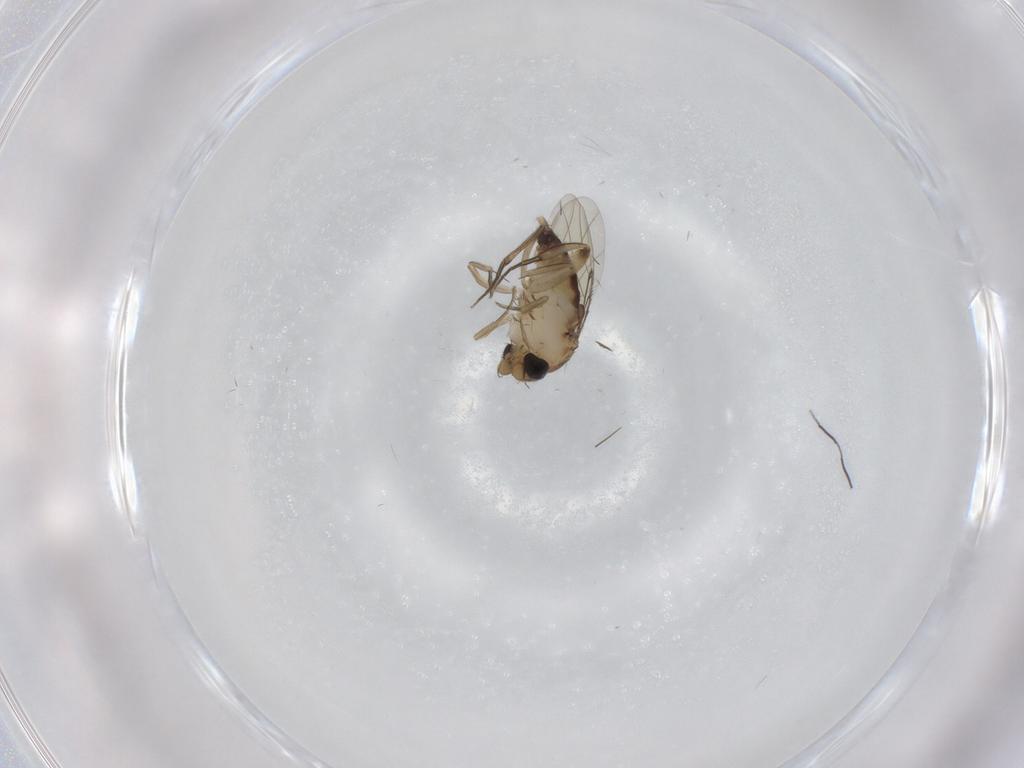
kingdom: Animalia
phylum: Arthropoda
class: Insecta
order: Diptera
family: Phoridae
